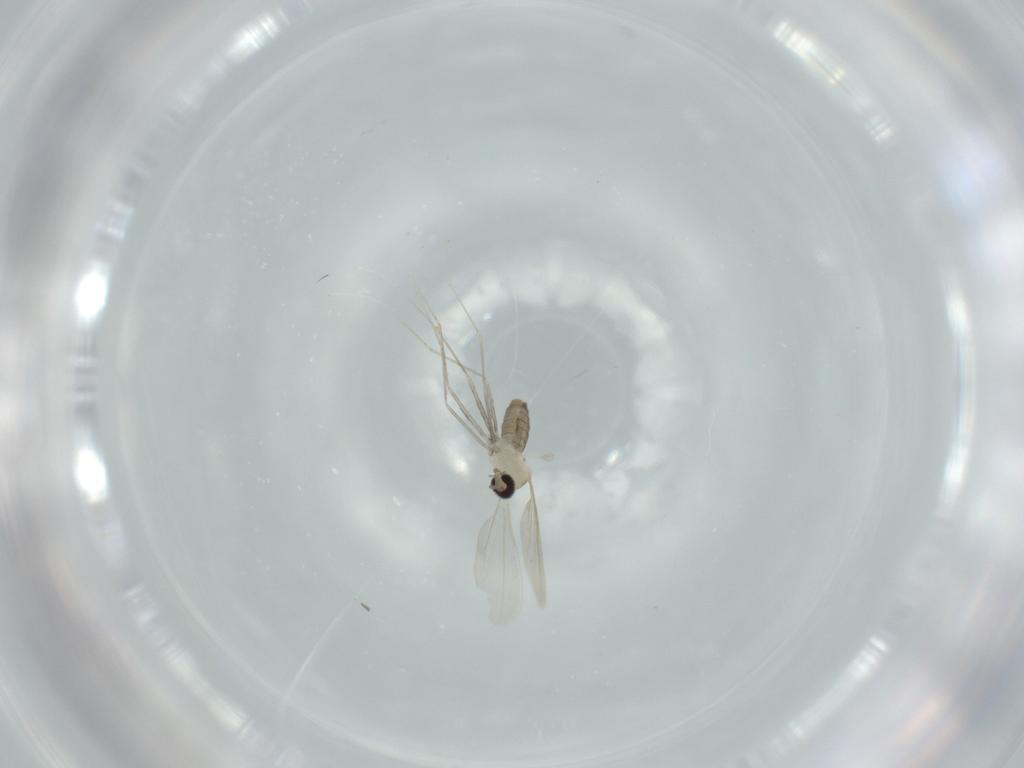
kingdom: Animalia
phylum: Arthropoda
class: Insecta
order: Diptera
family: Cecidomyiidae
